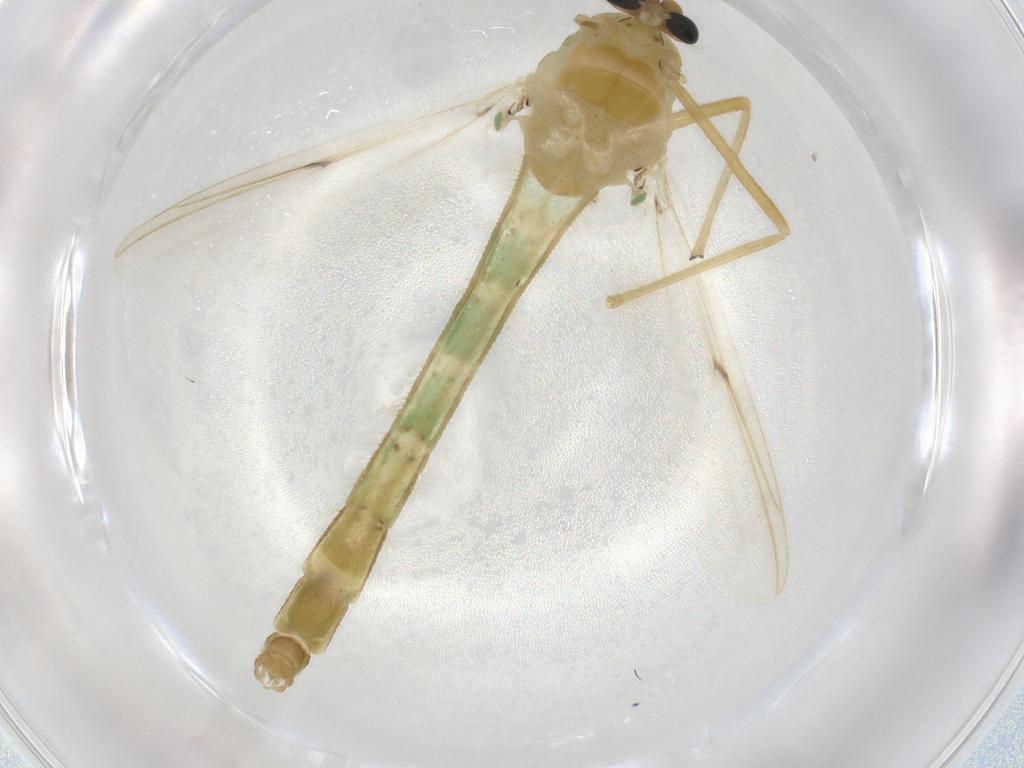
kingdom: Animalia
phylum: Arthropoda
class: Insecta
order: Diptera
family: Chironomidae
